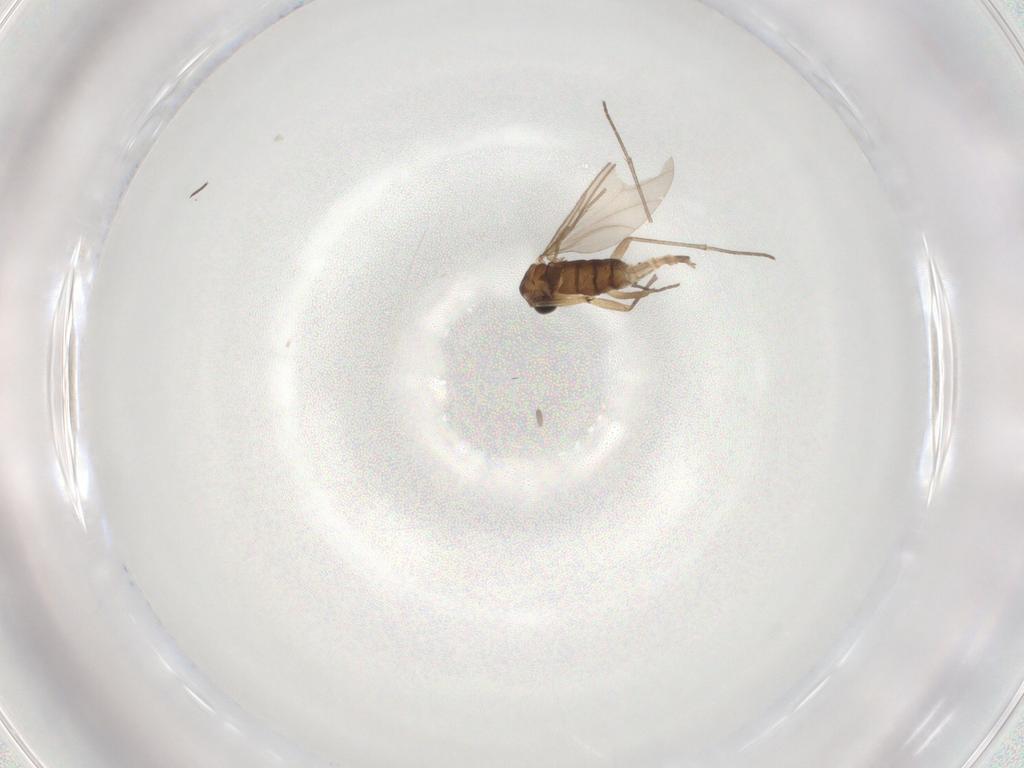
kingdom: Animalia
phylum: Arthropoda
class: Insecta
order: Diptera
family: Sciaridae
